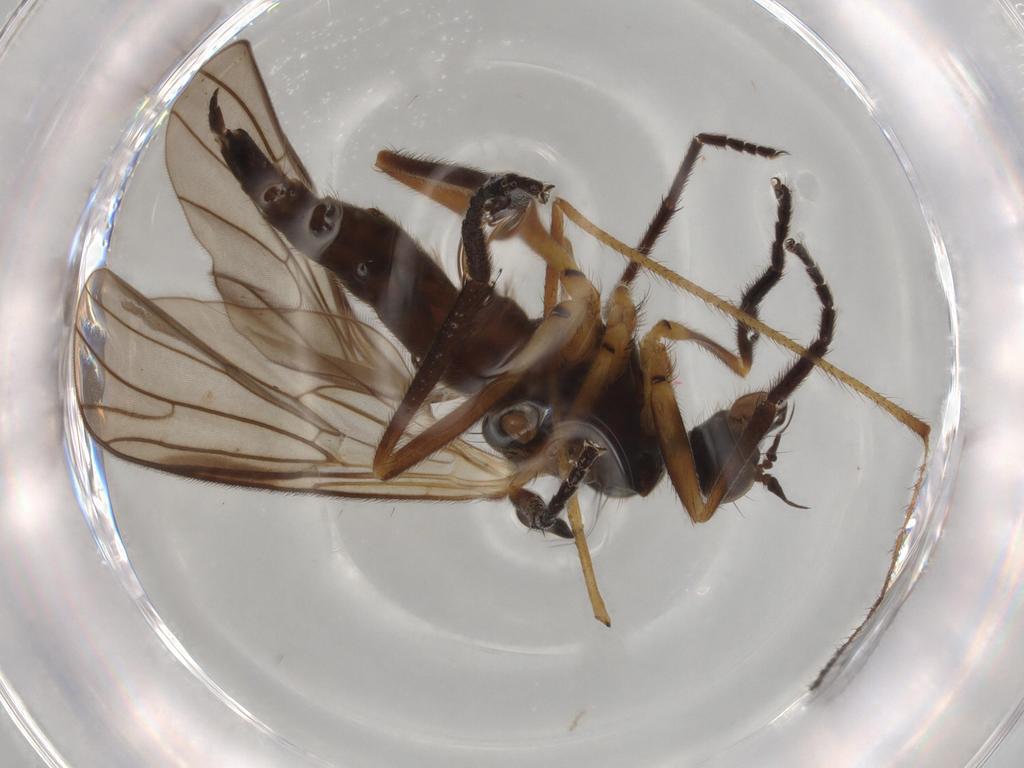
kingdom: Animalia
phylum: Arthropoda
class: Insecta
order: Diptera
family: Empididae
